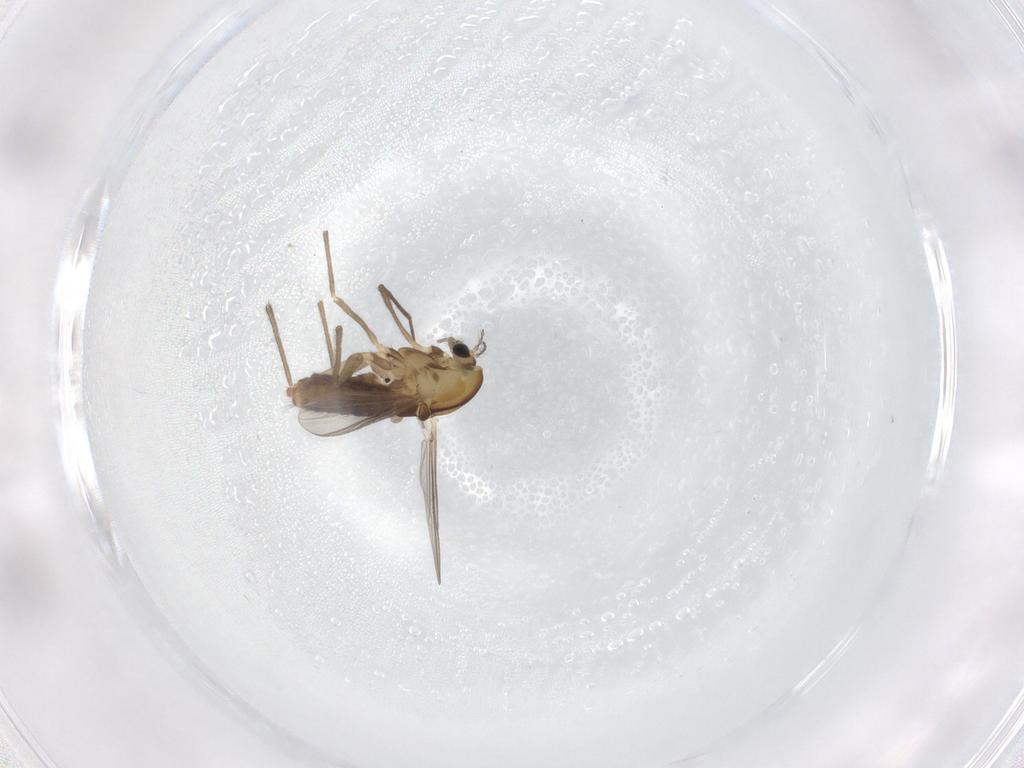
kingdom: Animalia
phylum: Arthropoda
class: Insecta
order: Diptera
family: Chironomidae
